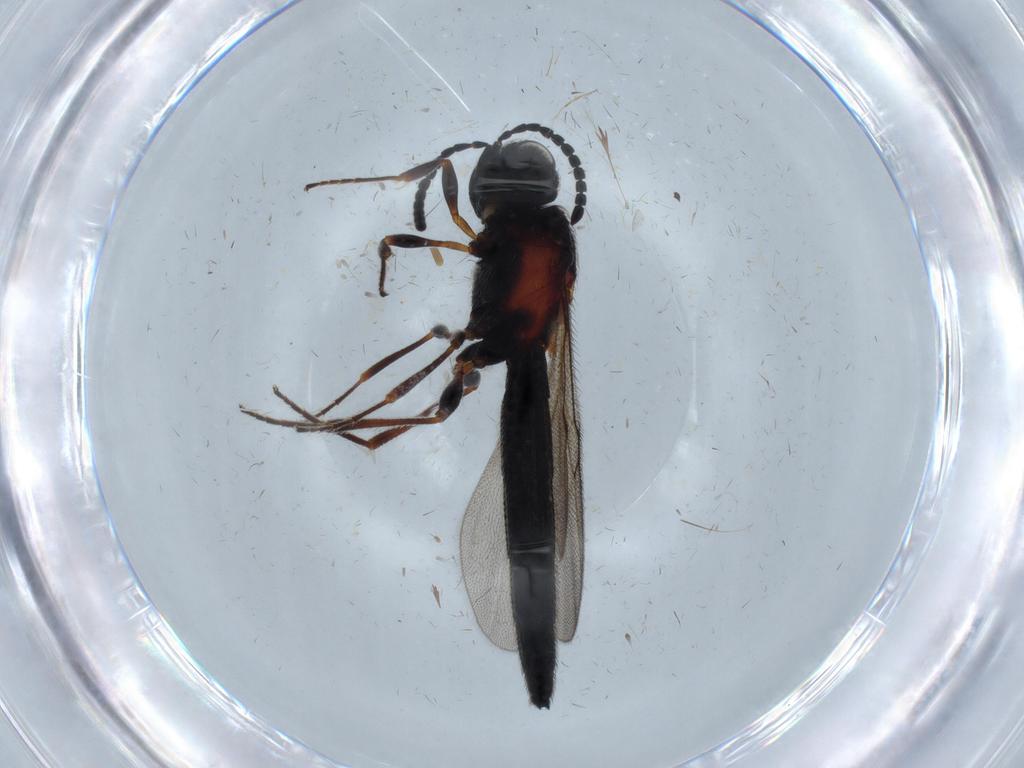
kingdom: Animalia
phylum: Arthropoda
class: Insecta
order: Hymenoptera
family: Scelionidae
